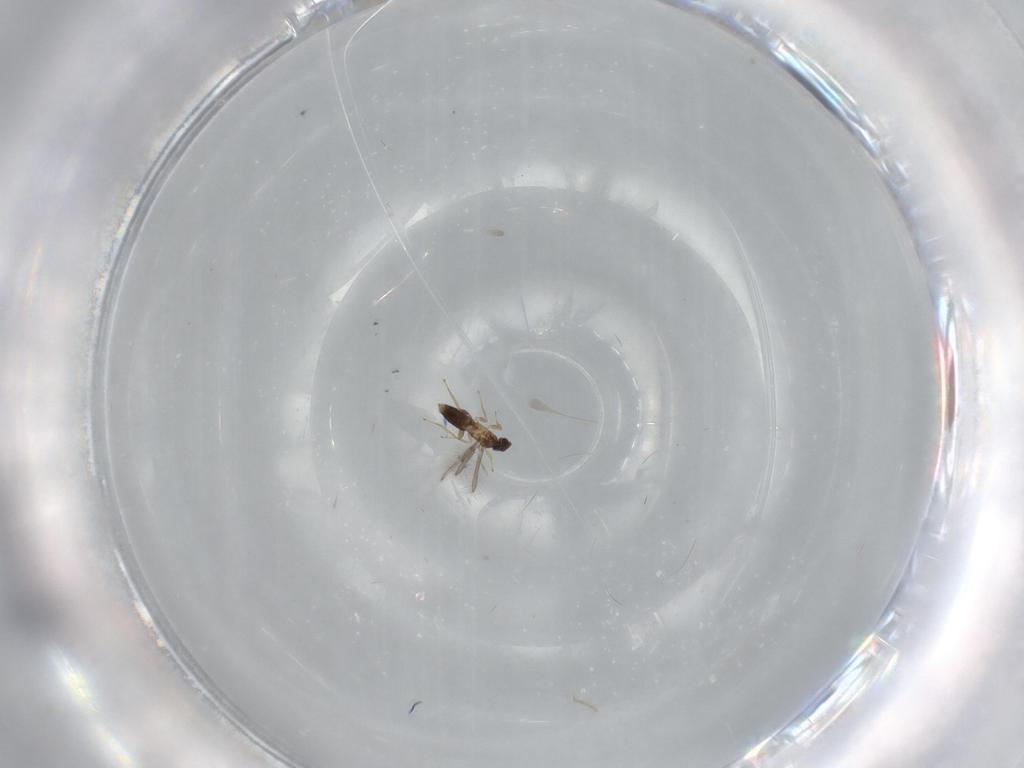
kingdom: Animalia
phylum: Arthropoda
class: Insecta
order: Hymenoptera
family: Mymaridae
